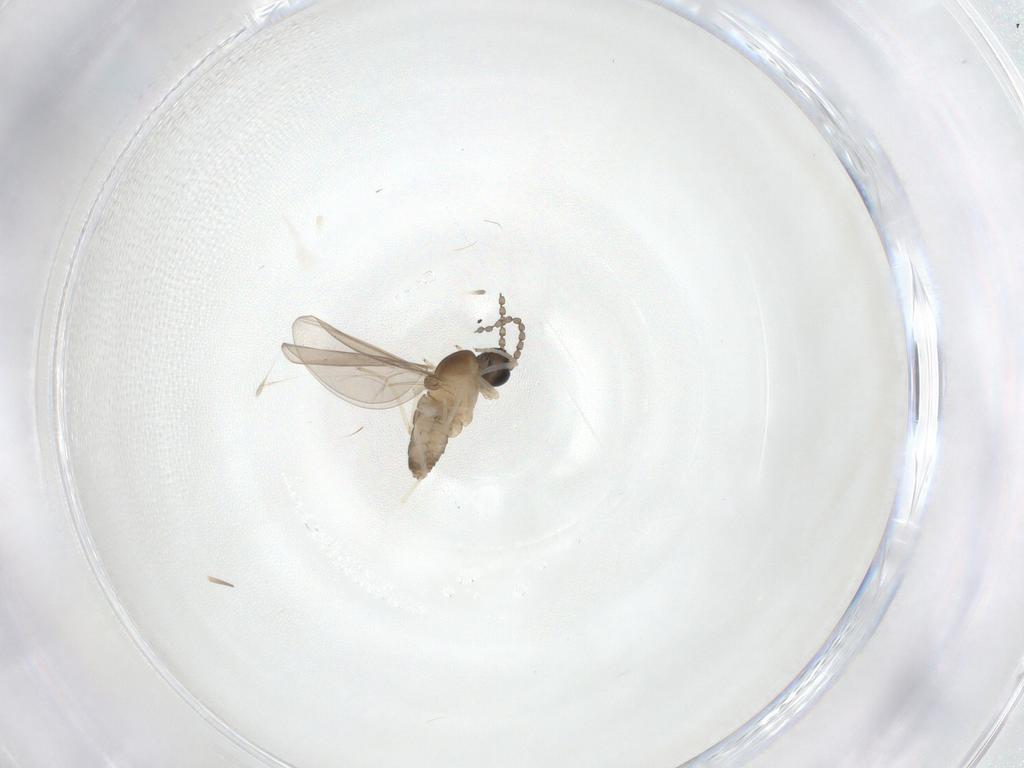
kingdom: Animalia
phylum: Arthropoda
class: Insecta
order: Diptera
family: Cecidomyiidae
